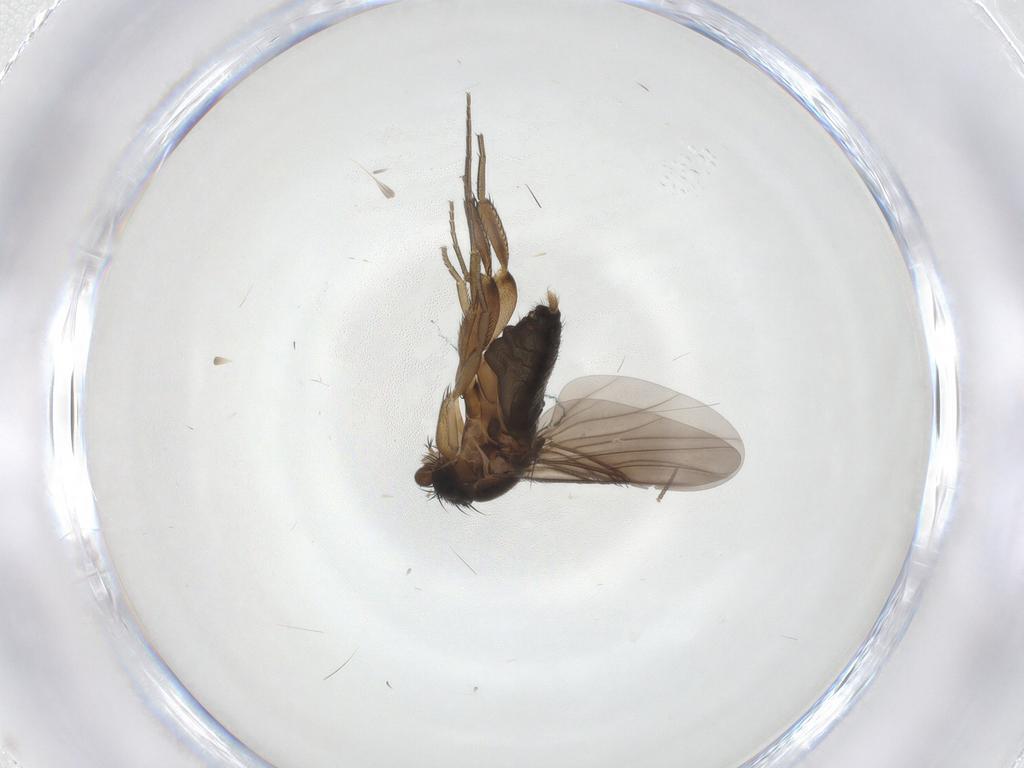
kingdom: Animalia
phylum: Arthropoda
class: Insecta
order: Diptera
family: Phoridae
